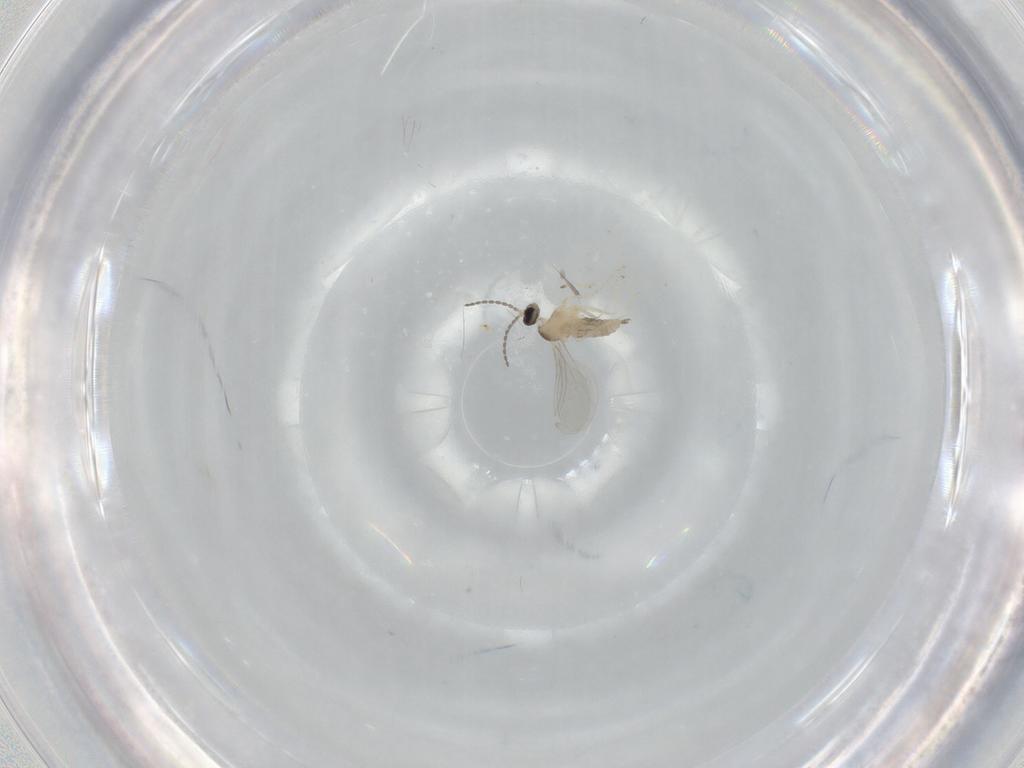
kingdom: Animalia
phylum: Arthropoda
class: Insecta
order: Diptera
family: Cecidomyiidae
